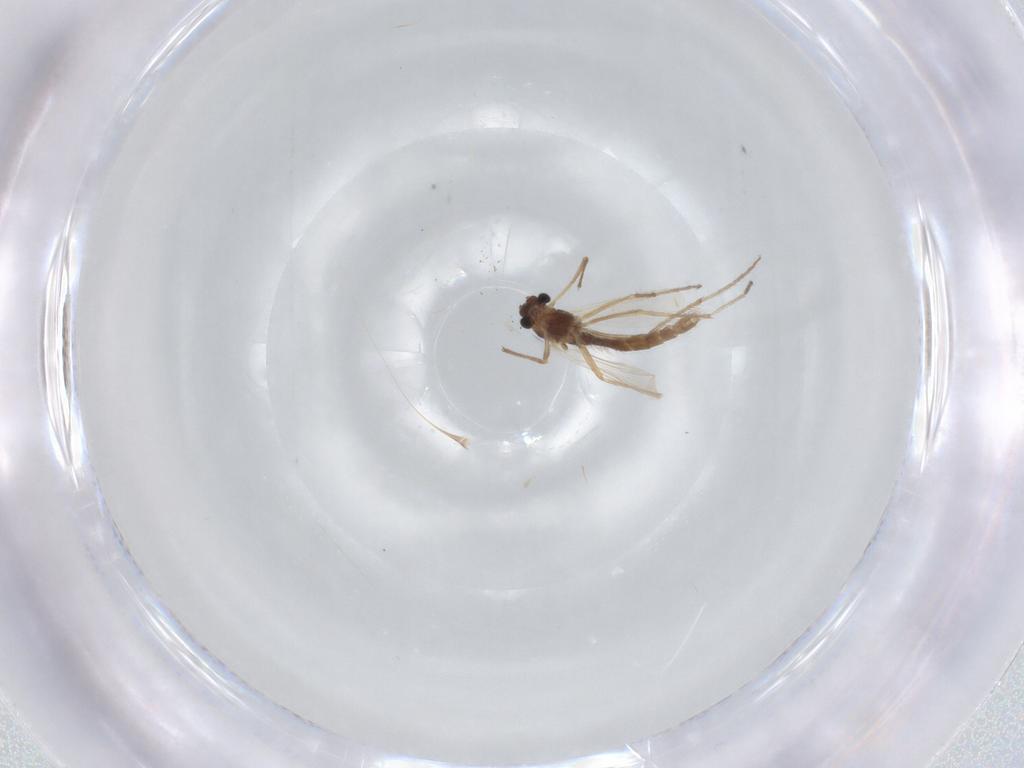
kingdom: Animalia
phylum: Arthropoda
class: Insecta
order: Diptera
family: Chironomidae
